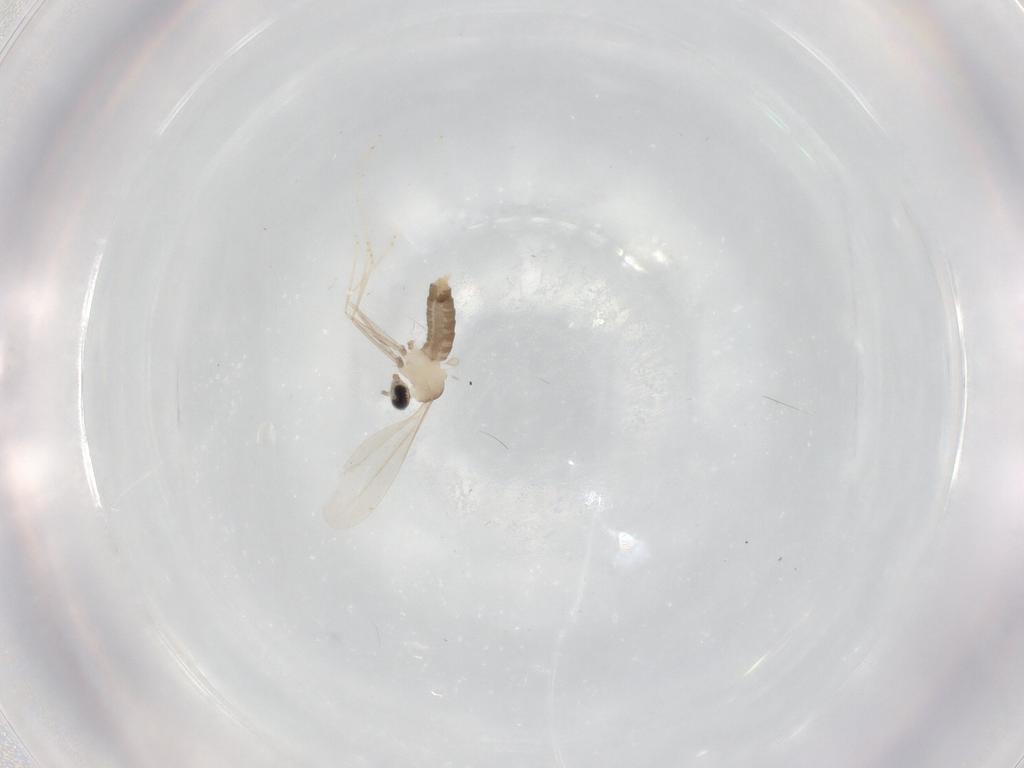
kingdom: Animalia
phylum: Arthropoda
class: Insecta
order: Diptera
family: Cecidomyiidae
